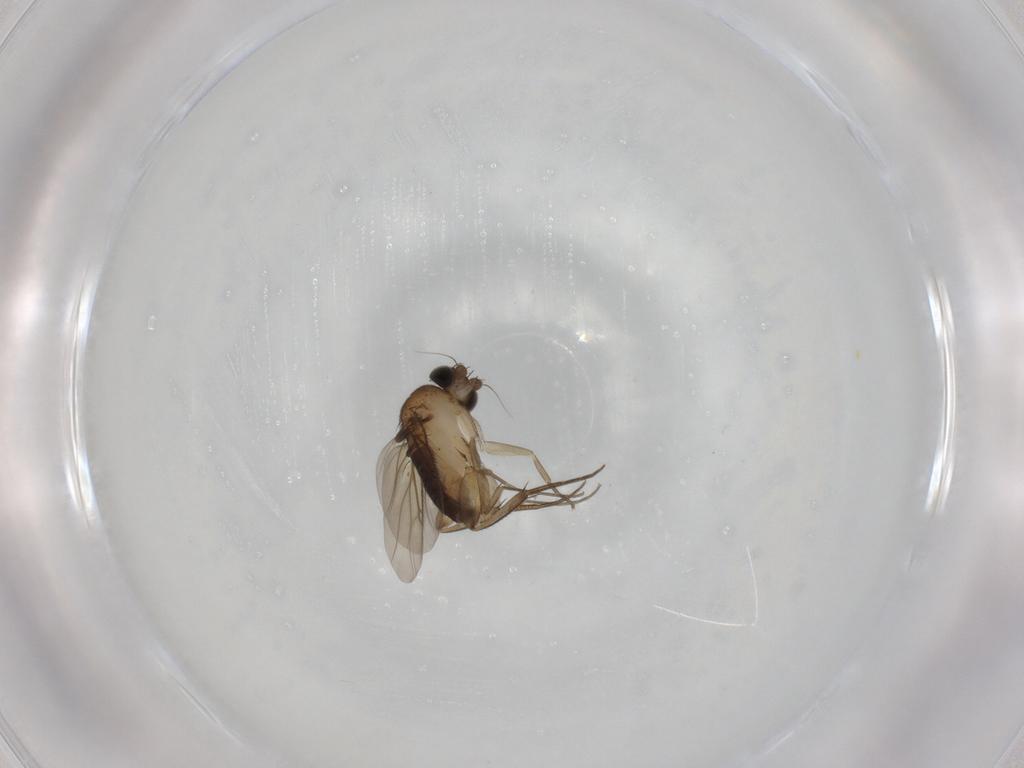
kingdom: Animalia
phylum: Arthropoda
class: Insecta
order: Diptera
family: Phoridae
